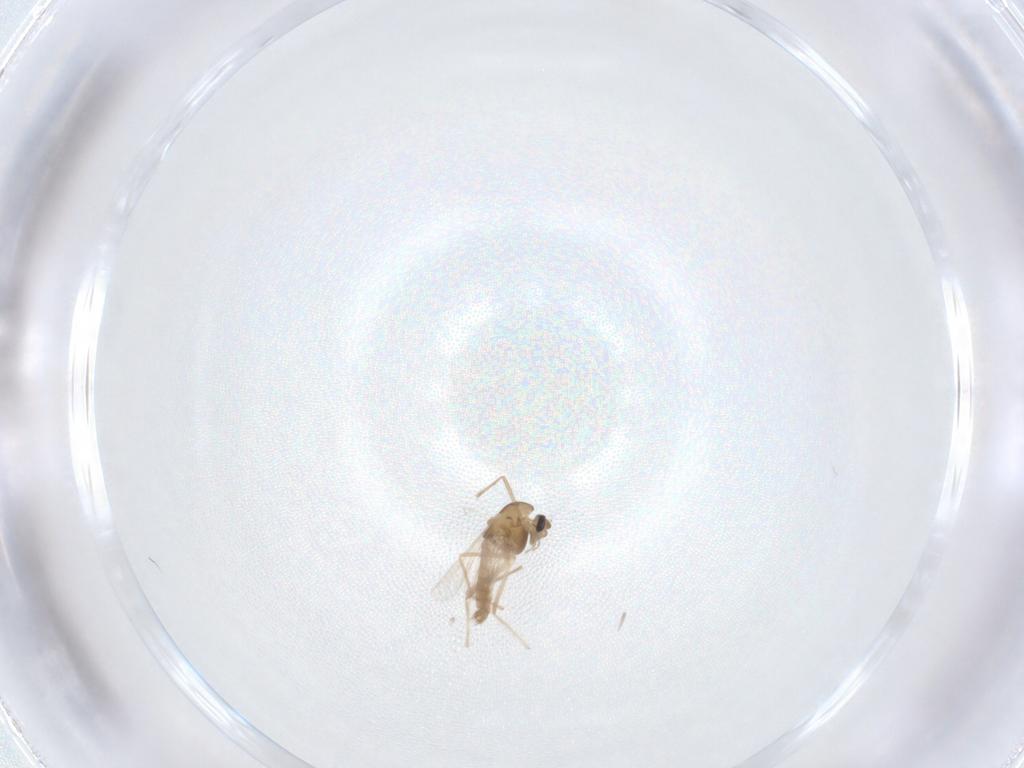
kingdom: Animalia
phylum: Arthropoda
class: Insecta
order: Diptera
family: Chironomidae
